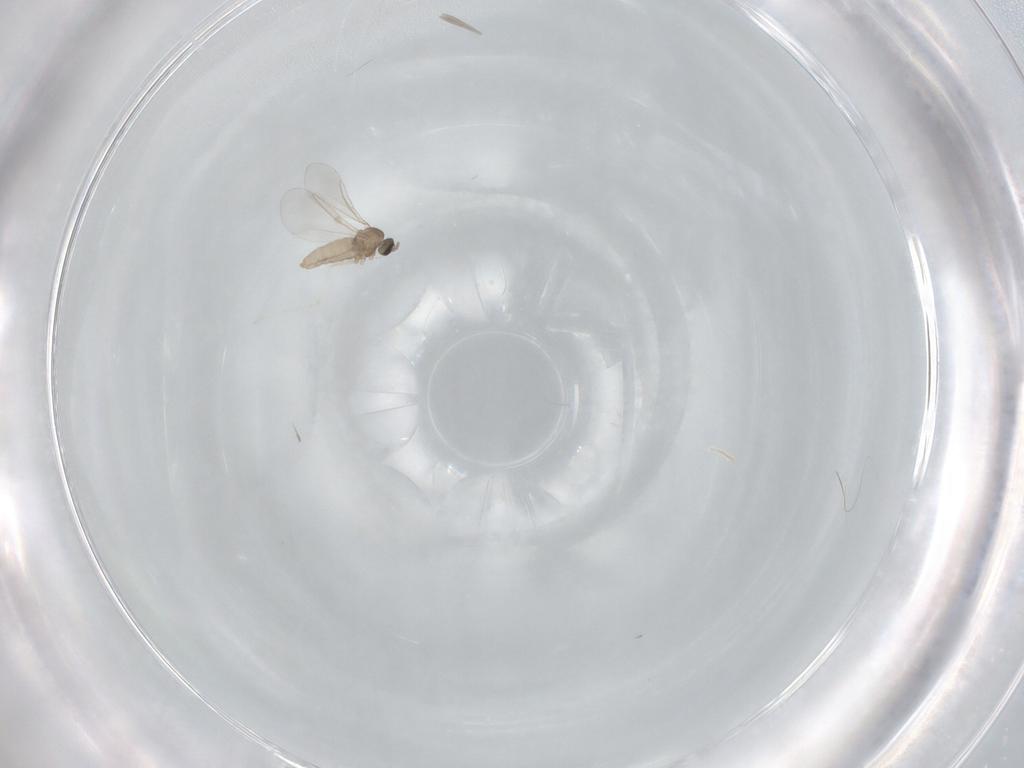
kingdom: Animalia
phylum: Arthropoda
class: Insecta
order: Diptera
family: Chironomidae
